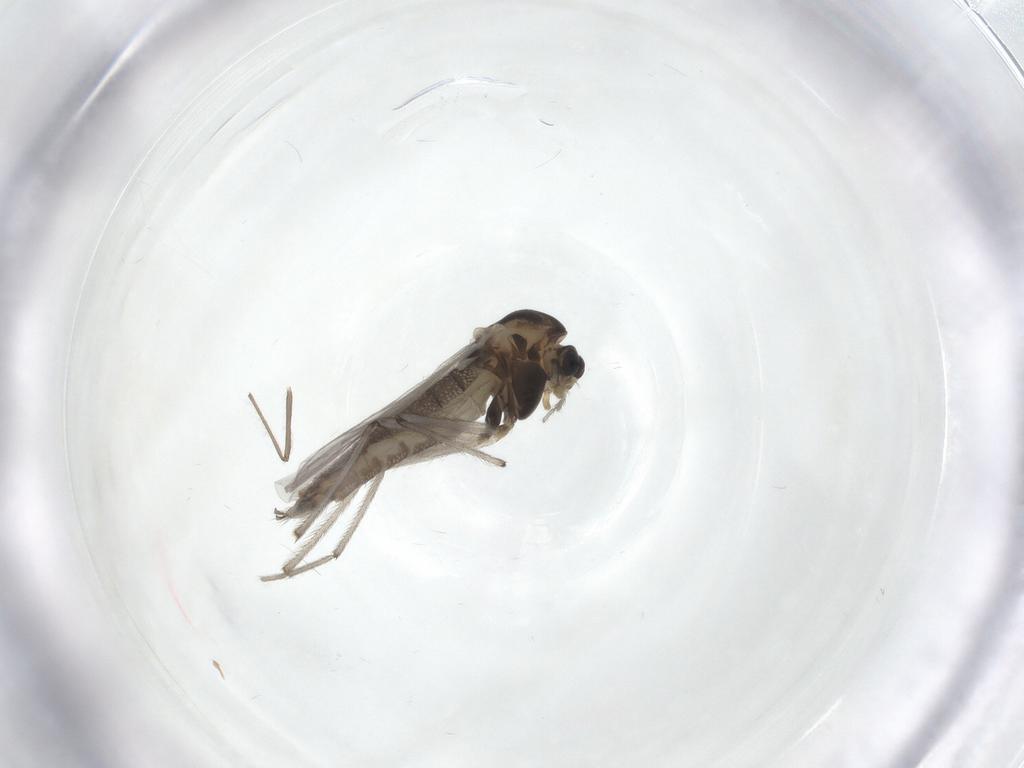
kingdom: Animalia
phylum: Arthropoda
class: Insecta
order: Diptera
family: Chironomidae
